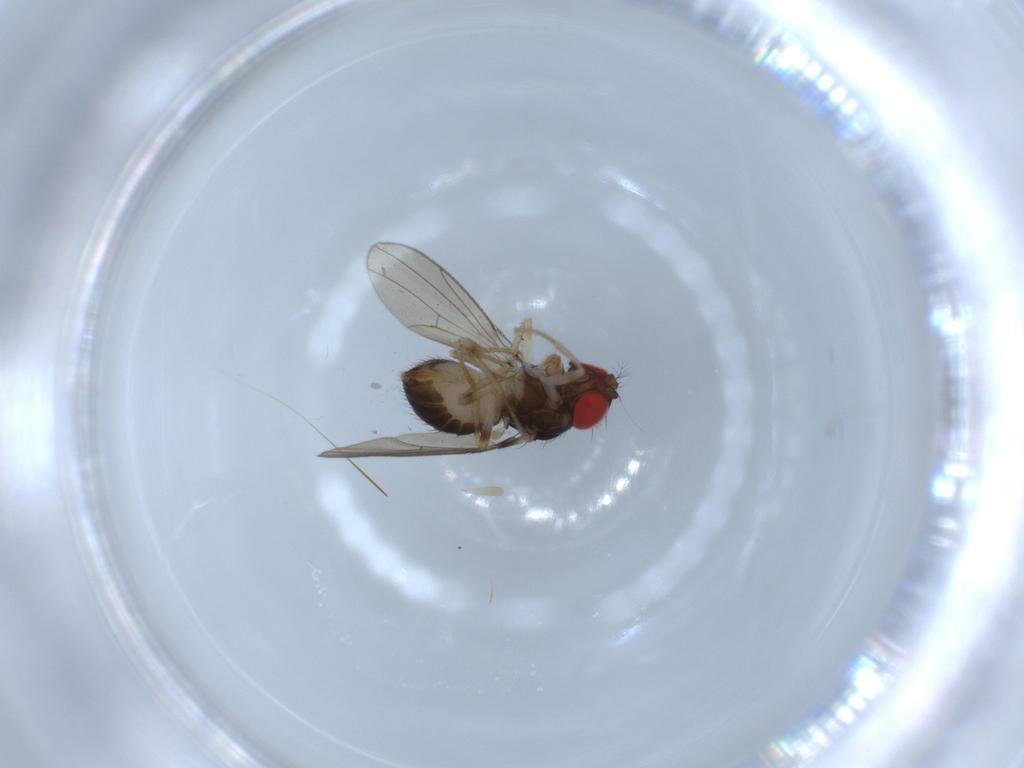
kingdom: Animalia
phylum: Arthropoda
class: Insecta
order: Diptera
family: Drosophilidae
